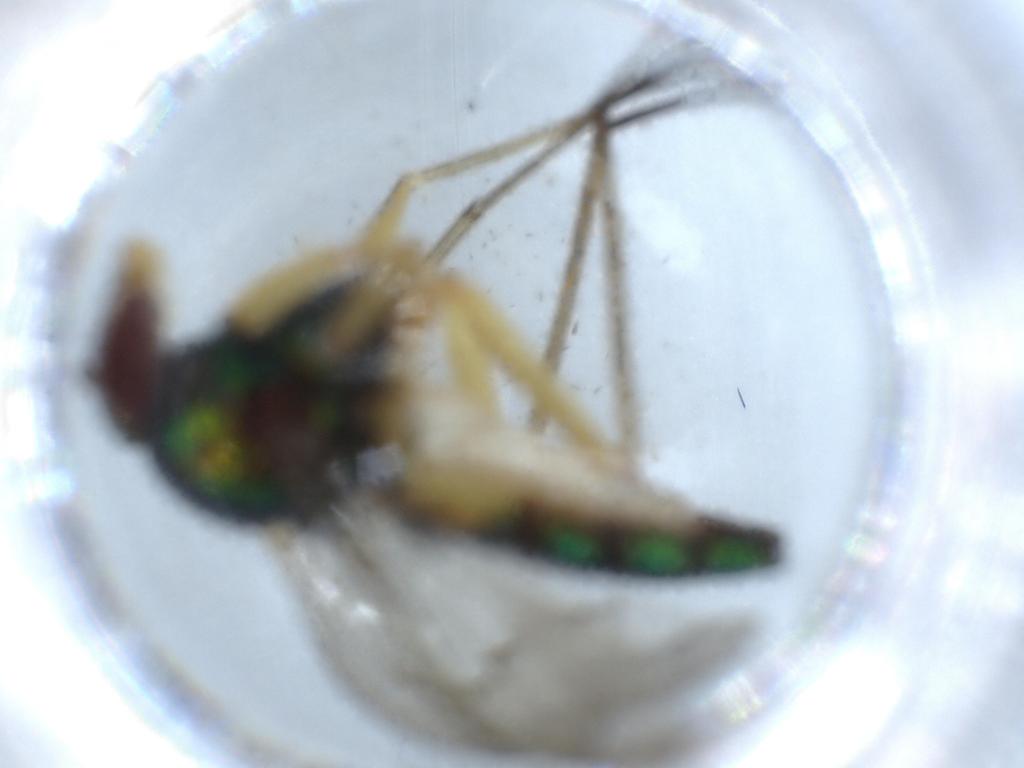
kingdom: Animalia
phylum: Arthropoda
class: Insecta
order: Diptera
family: Dolichopodidae
